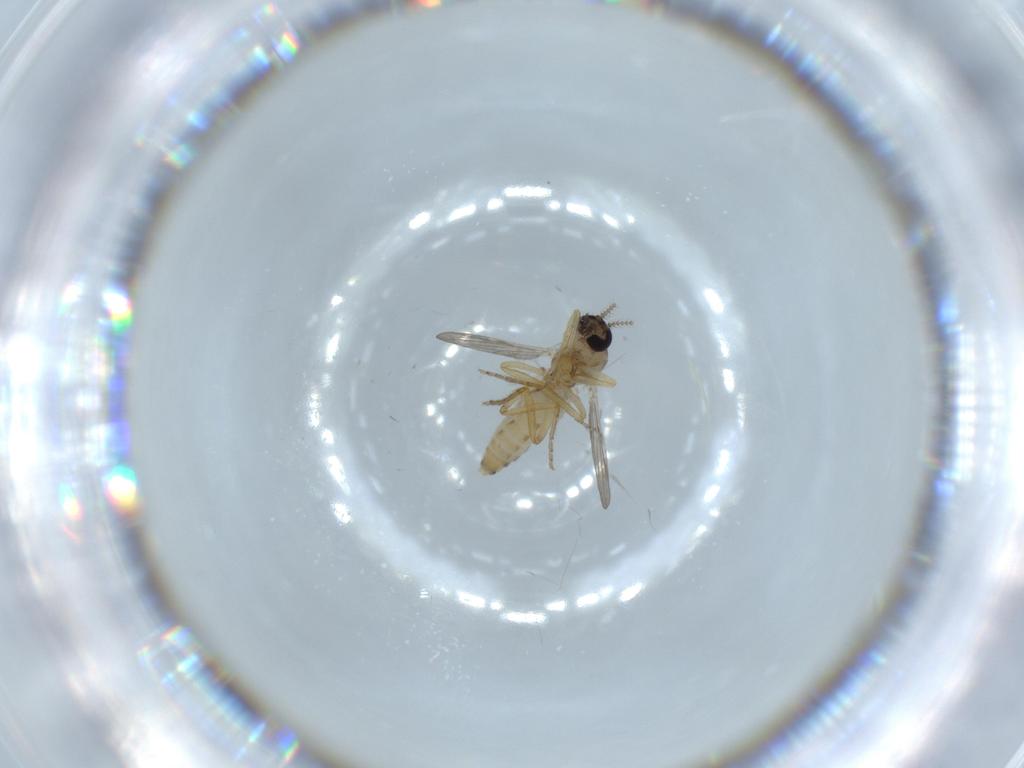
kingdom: Animalia
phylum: Arthropoda
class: Insecta
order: Diptera
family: Ceratopogonidae
